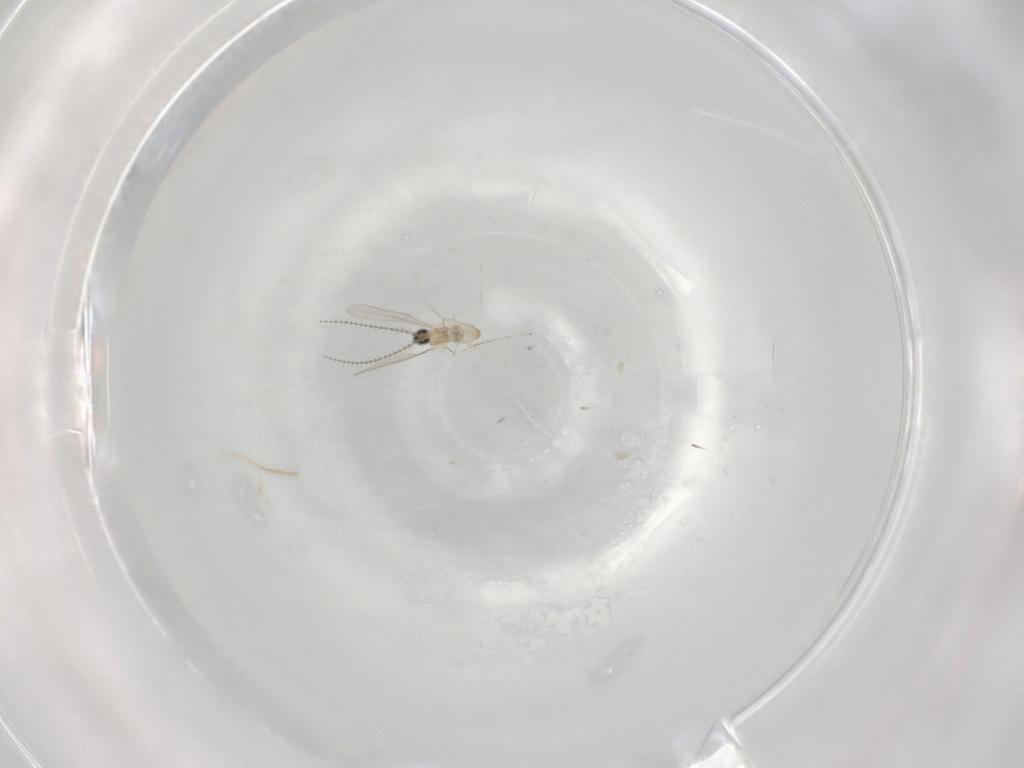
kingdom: Animalia
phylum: Arthropoda
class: Insecta
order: Diptera
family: Cecidomyiidae
